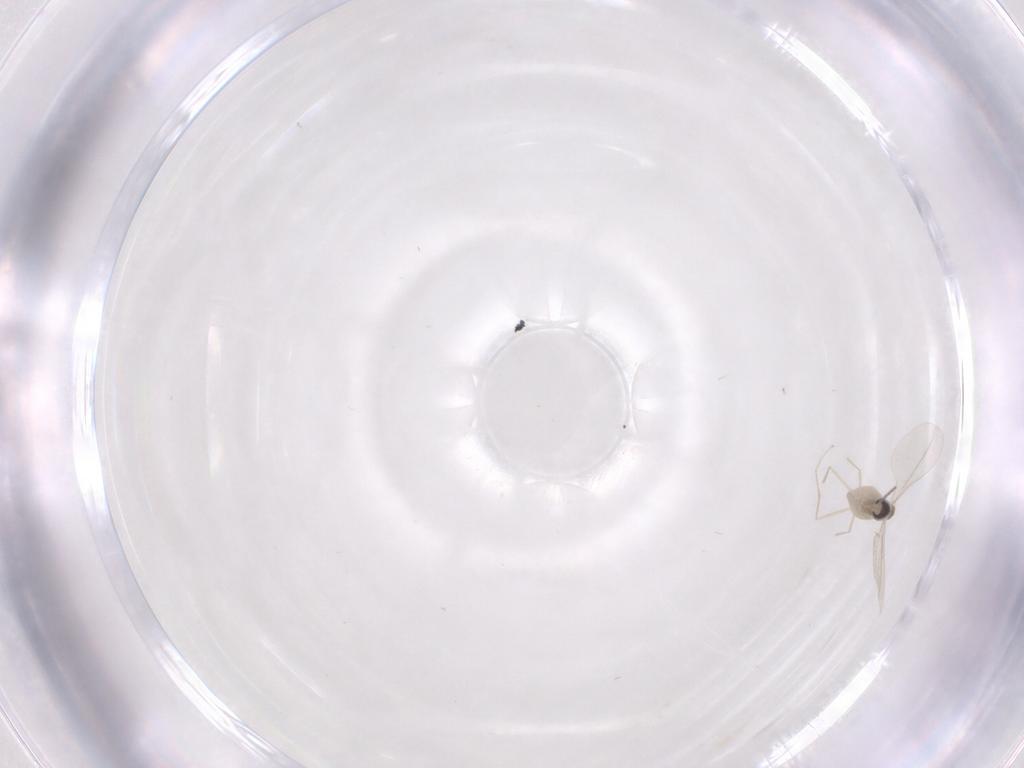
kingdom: Animalia
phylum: Arthropoda
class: Insecta
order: Diptera
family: Cecidomyiidae
